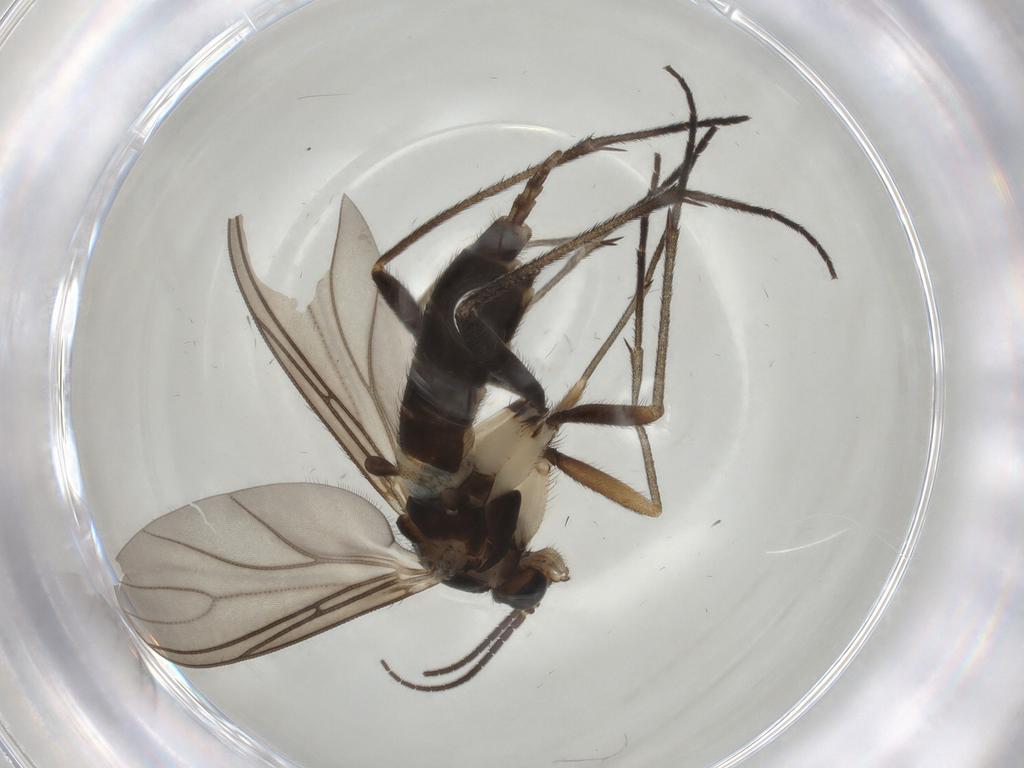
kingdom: Animalia
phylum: Arthropoda
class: Insecta
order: Diptera
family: Sciaridae
